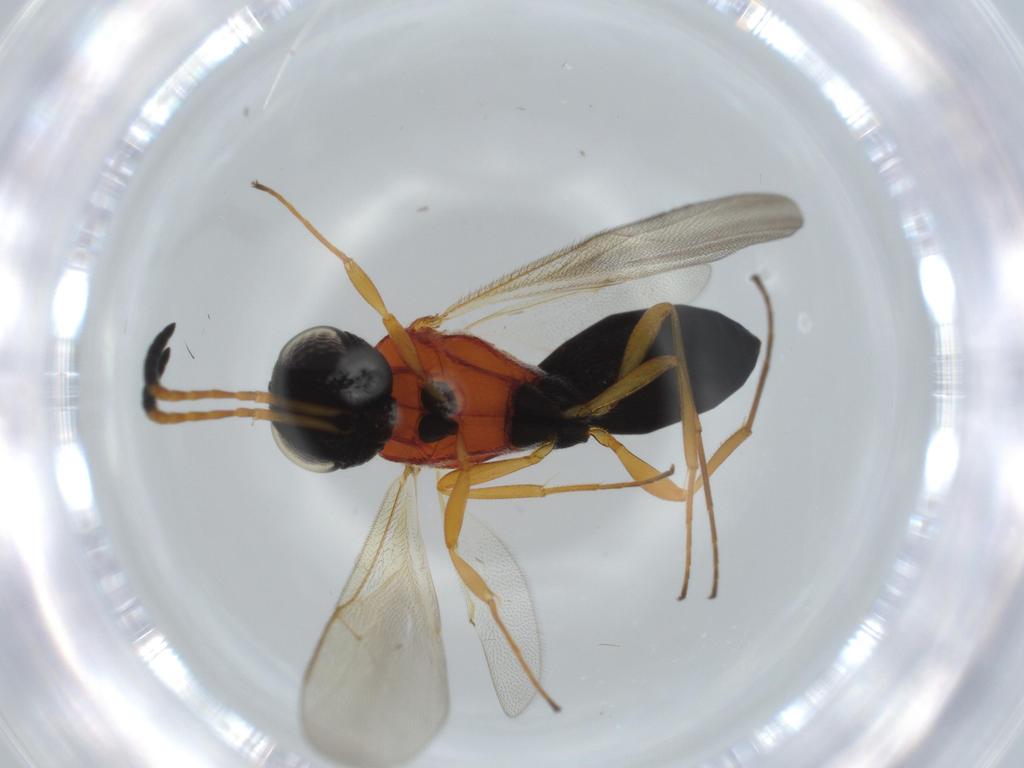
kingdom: Animalia
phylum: Arthropoda
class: Insecta
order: Hymenoptera
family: Scelionidae
